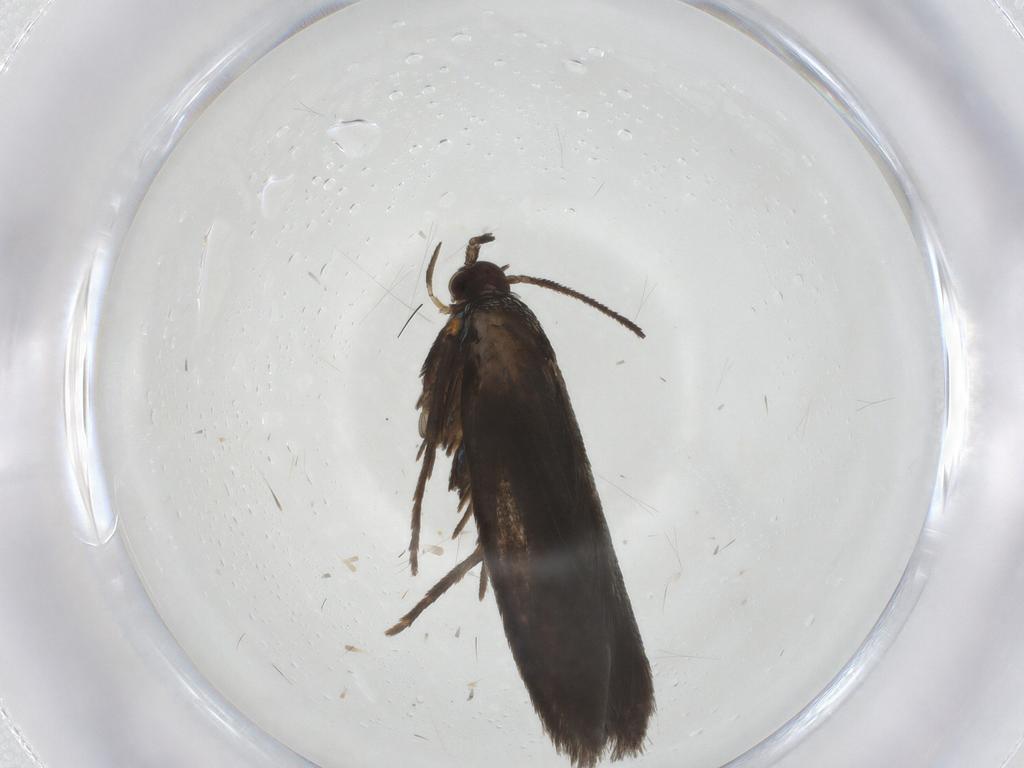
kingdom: Animalia
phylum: Arthropoda
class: Insecta
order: Lepidoptera
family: Argyresthiidae
